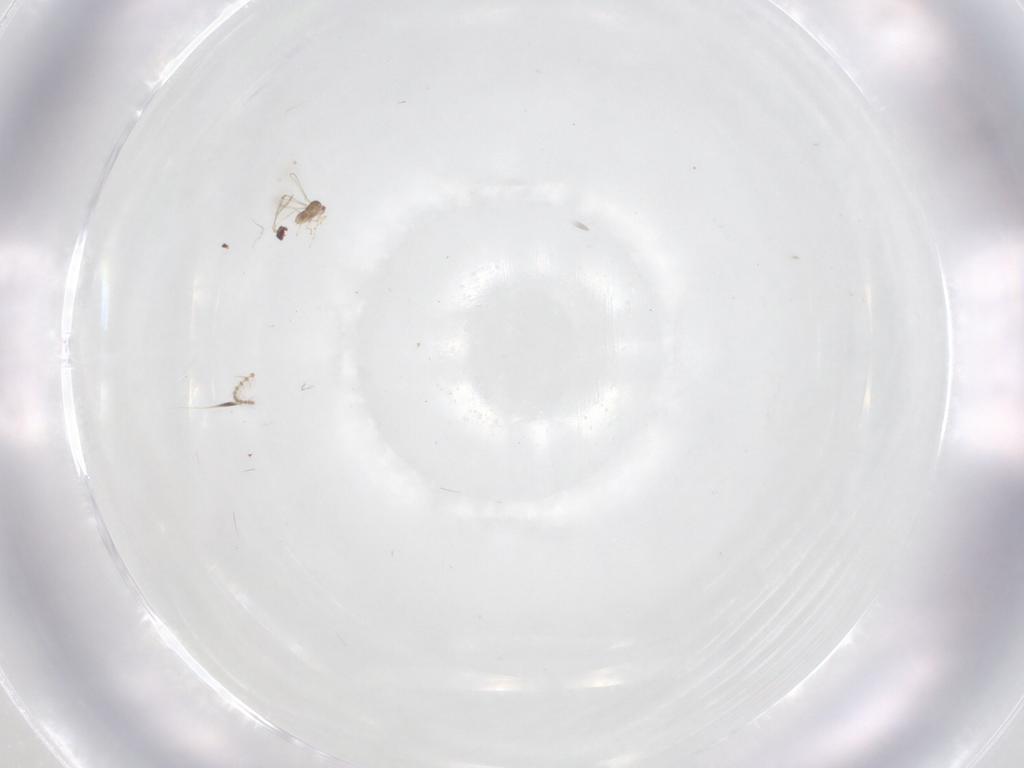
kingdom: Animalia
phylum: Arthropoda
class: Insecta
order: Diptera
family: Psychodidae
